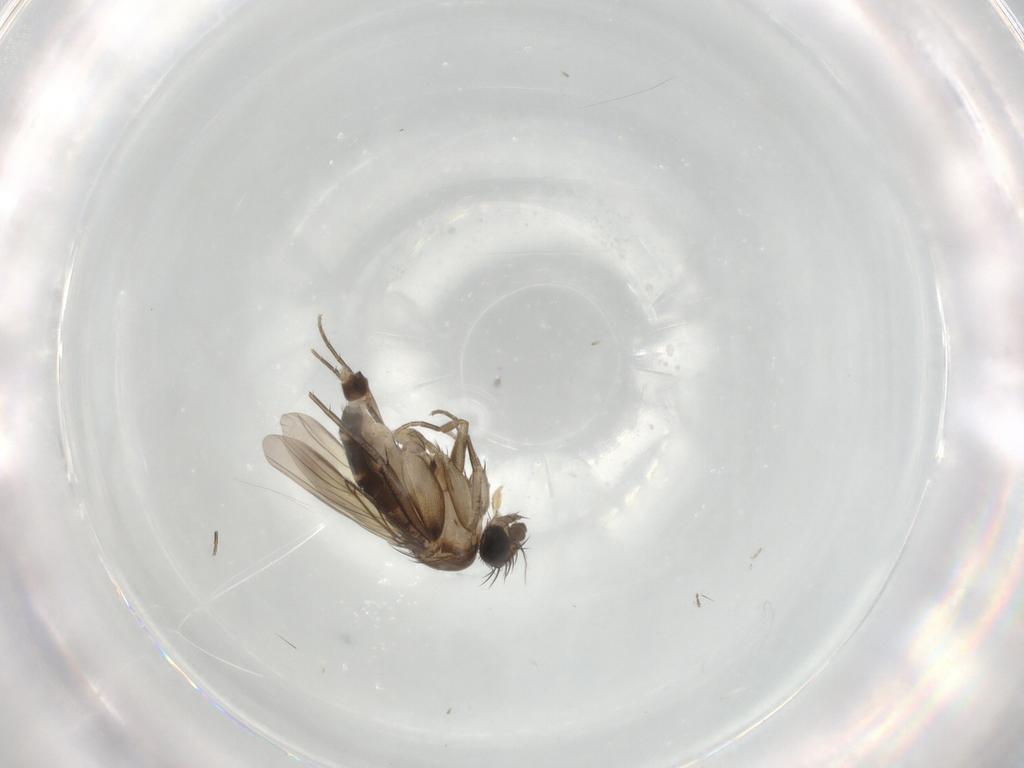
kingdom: Animalia
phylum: Arthropoda
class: Insecta
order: Diptera
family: Phoridae
